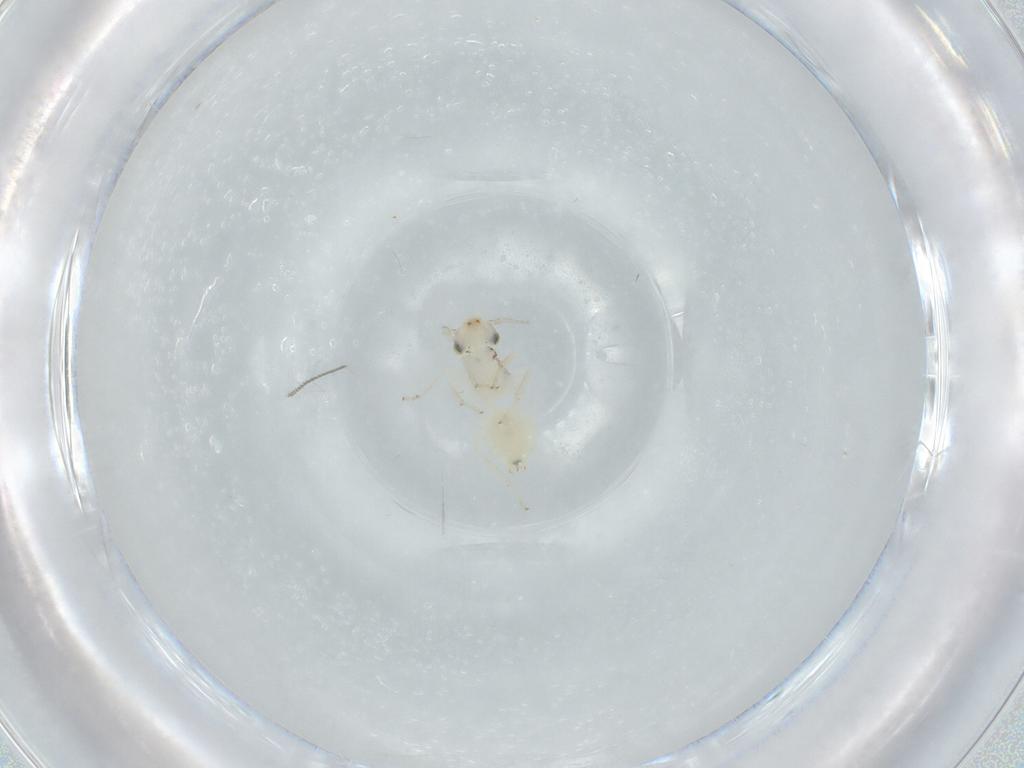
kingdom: Animalia
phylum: Arthropoda
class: Insecta
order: Psocodea
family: Lepidopsocidae
